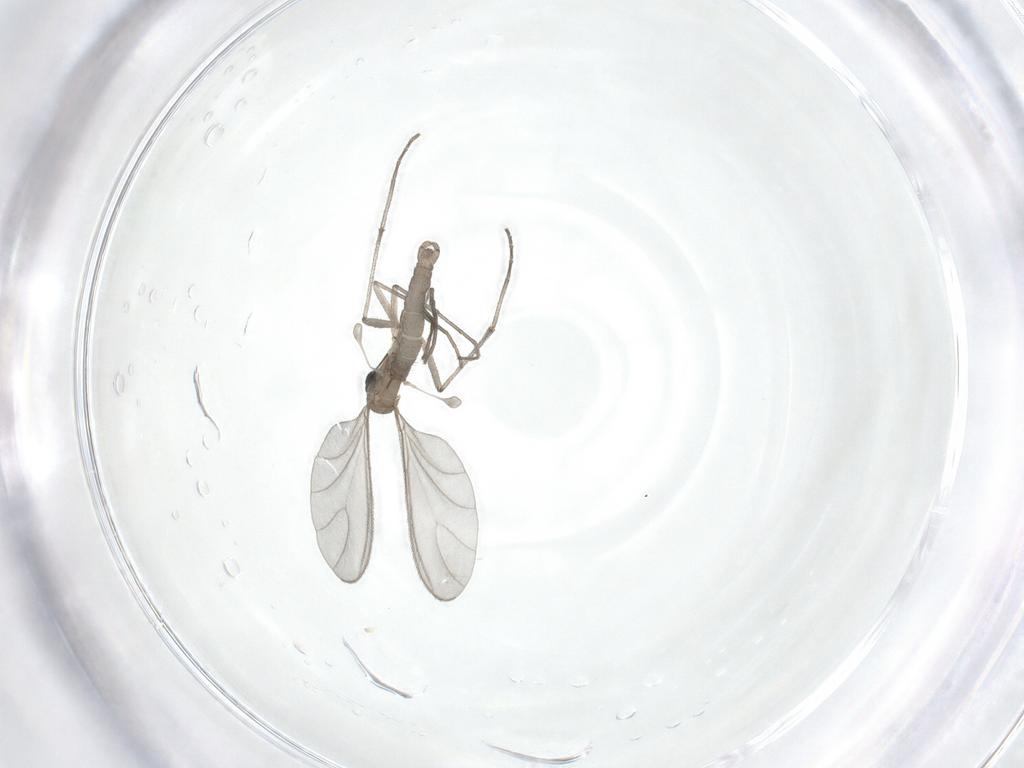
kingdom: Animalia
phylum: Arthropoda
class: Insecta
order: Diptera
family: Sciaridae
